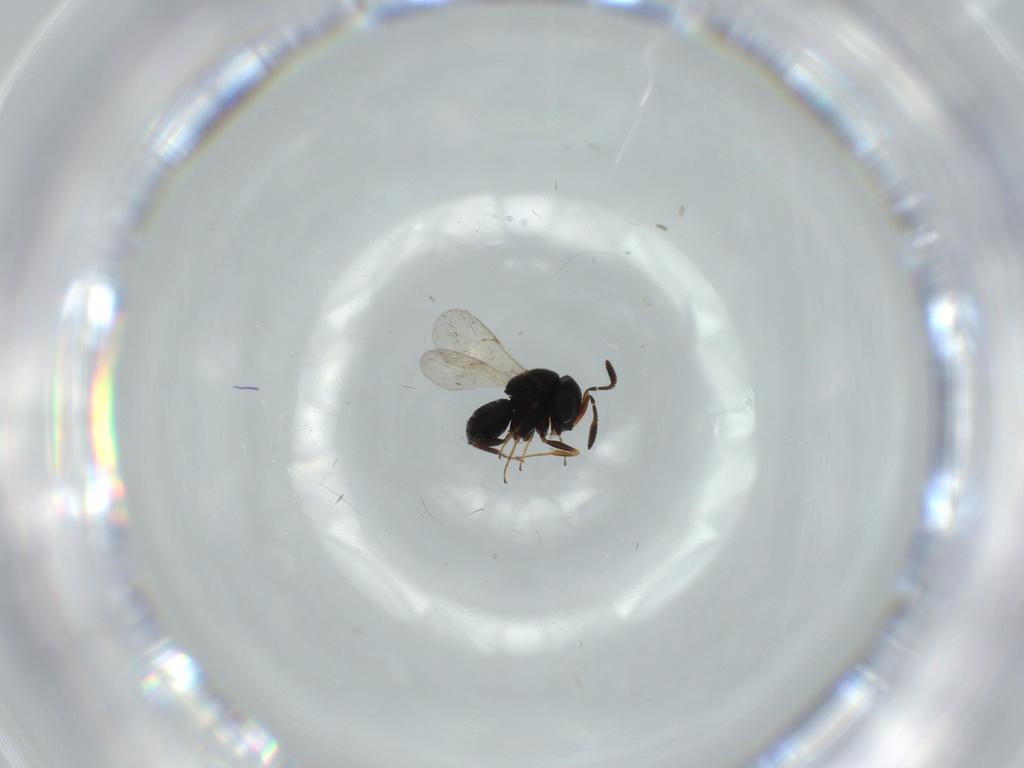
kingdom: Animalia
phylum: Arthropoda
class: Insecta
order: Hymenoptera
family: Scelionidae
